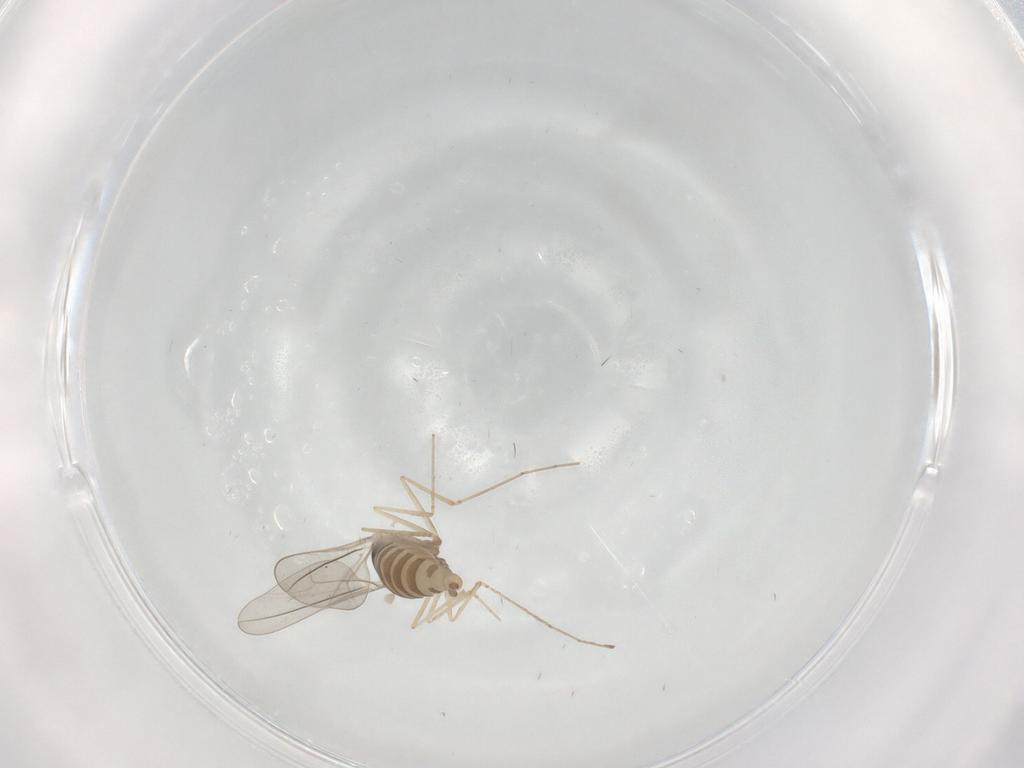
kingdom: Animalia
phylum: Arthropoda
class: Insecta
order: Diptera
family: Cecidomyiidae
